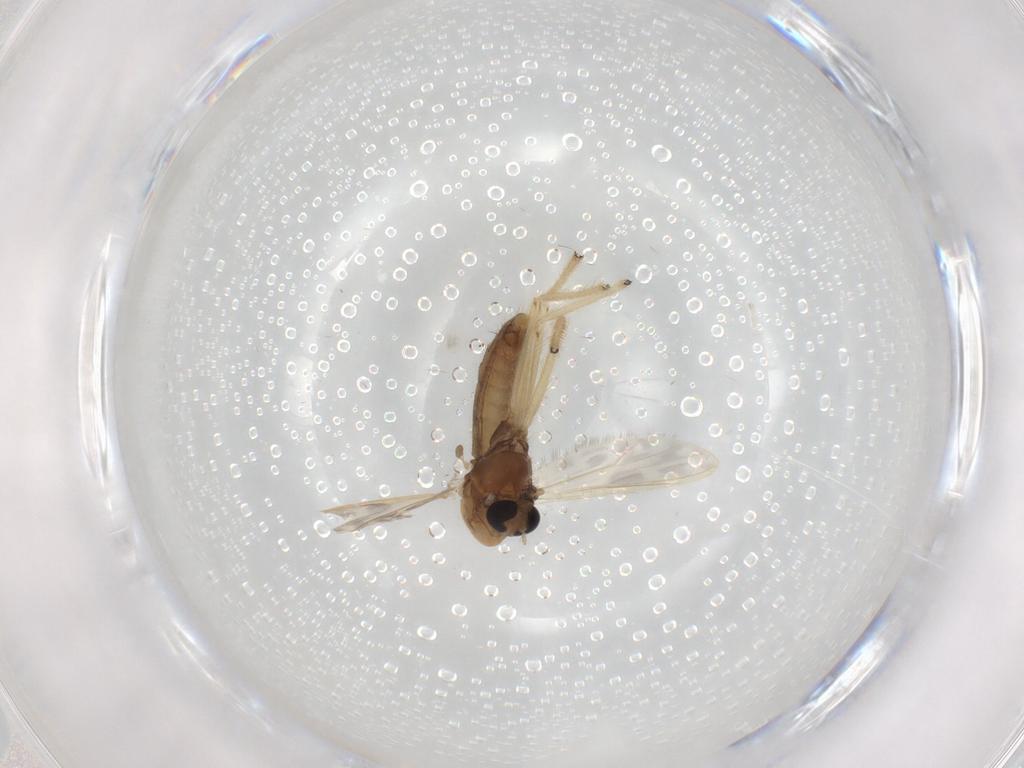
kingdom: Animalia
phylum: Arthropoda
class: Insecta
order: Diptera
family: Chironomidae
